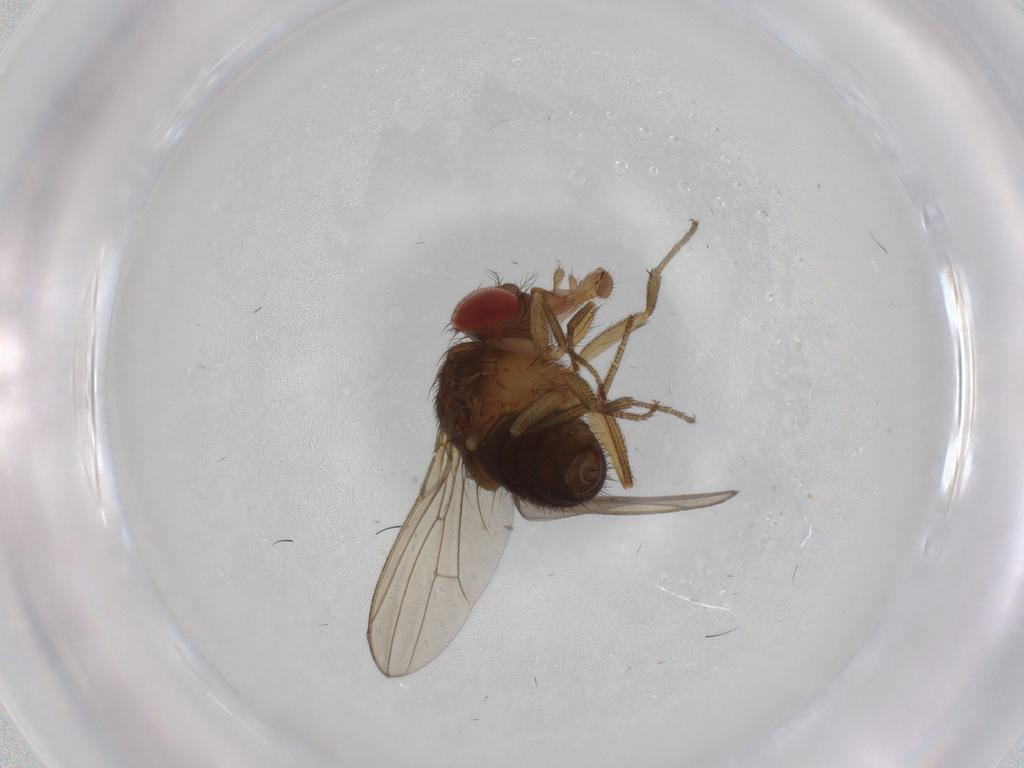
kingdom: Animalia
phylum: Arthropoda
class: Insecta
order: Diptera
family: Drosophilidae
